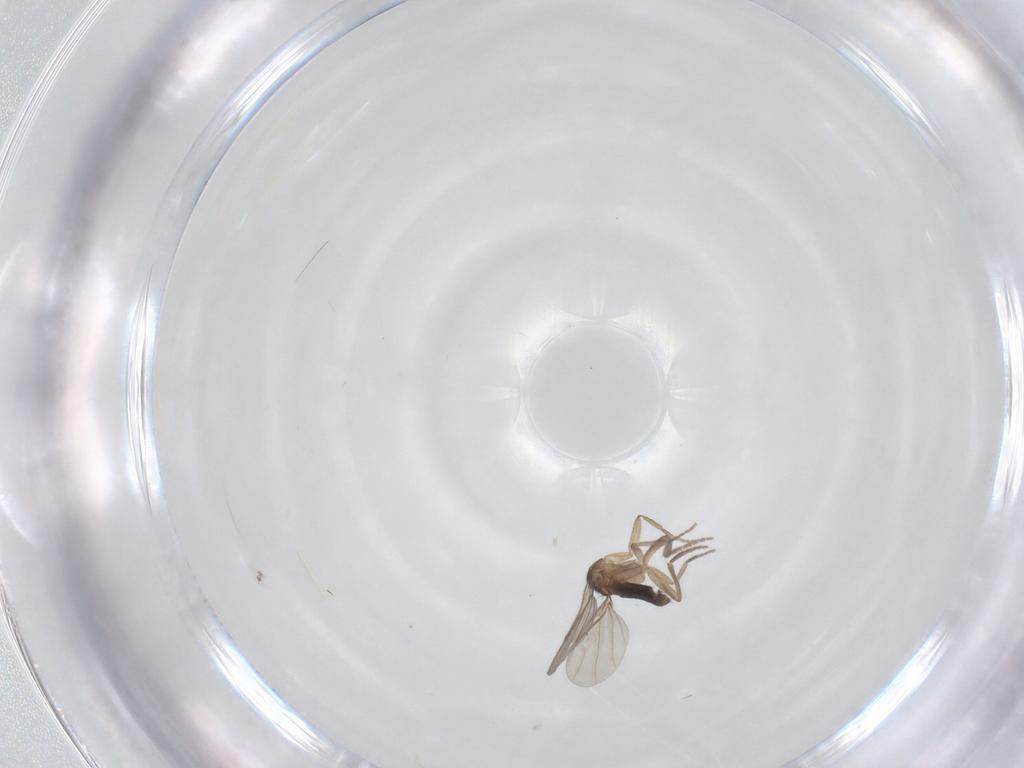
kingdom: Animalia
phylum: Arthropoda
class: Insecta
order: Diptera
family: Phoridae
